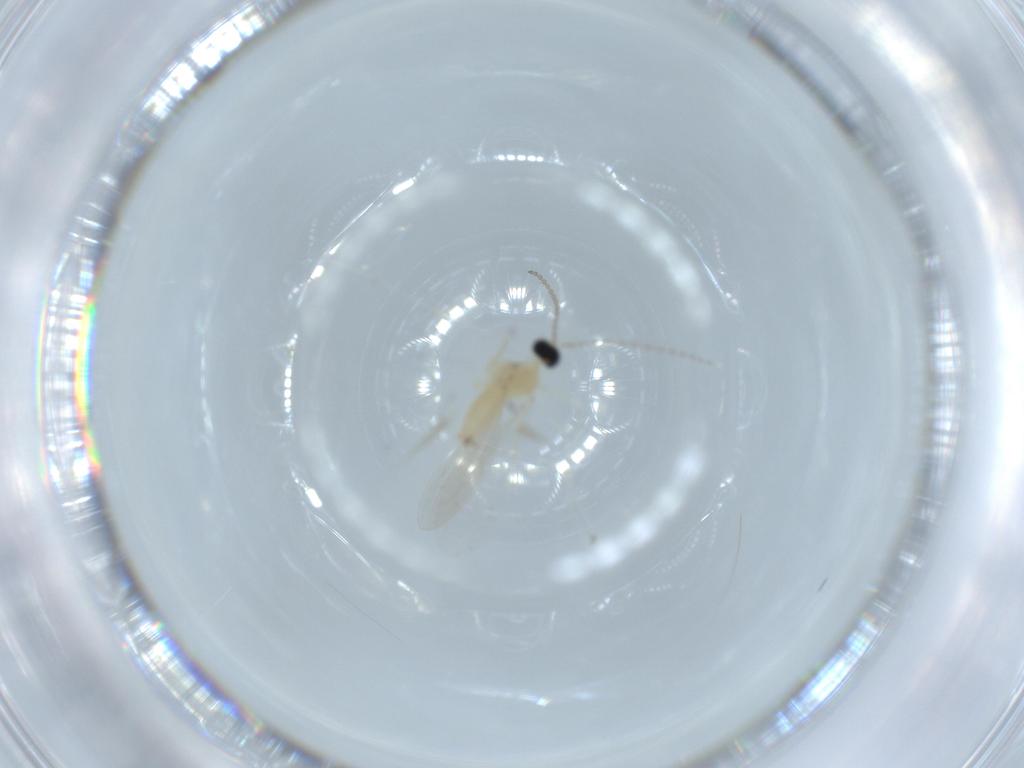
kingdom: Animalia
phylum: Arthropoda
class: Insecta
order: Diptera
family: Cecidomyiidae
